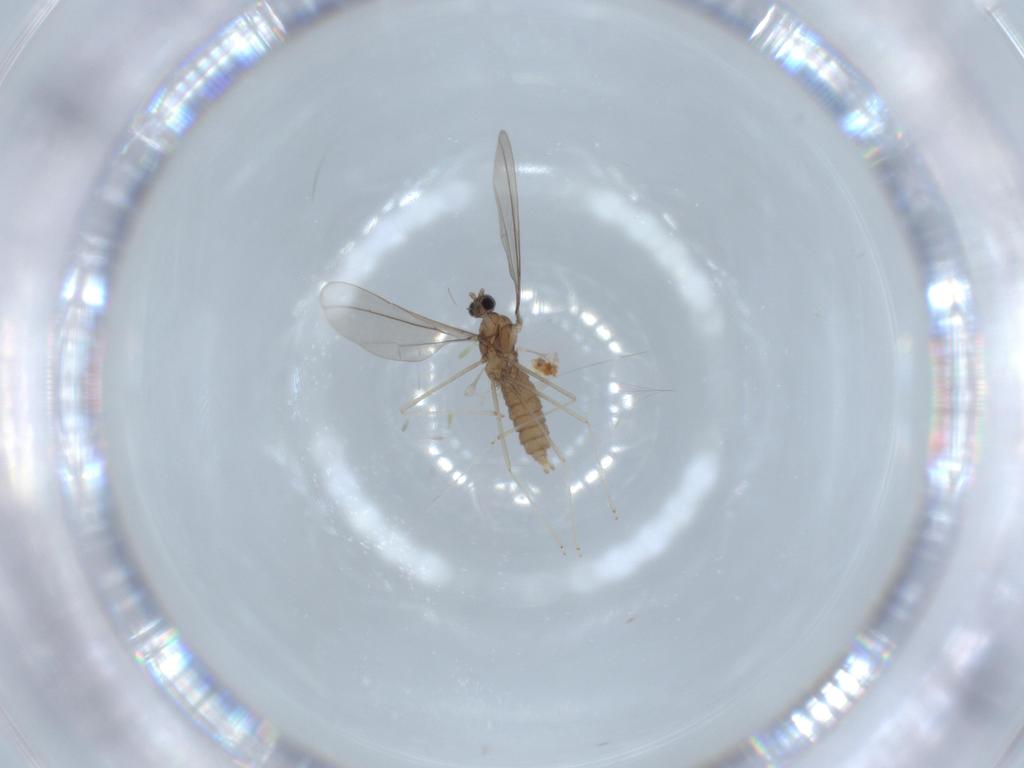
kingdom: Animalia
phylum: Arthropoda
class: Insecta
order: Diptera
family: Cecidomyiidae
